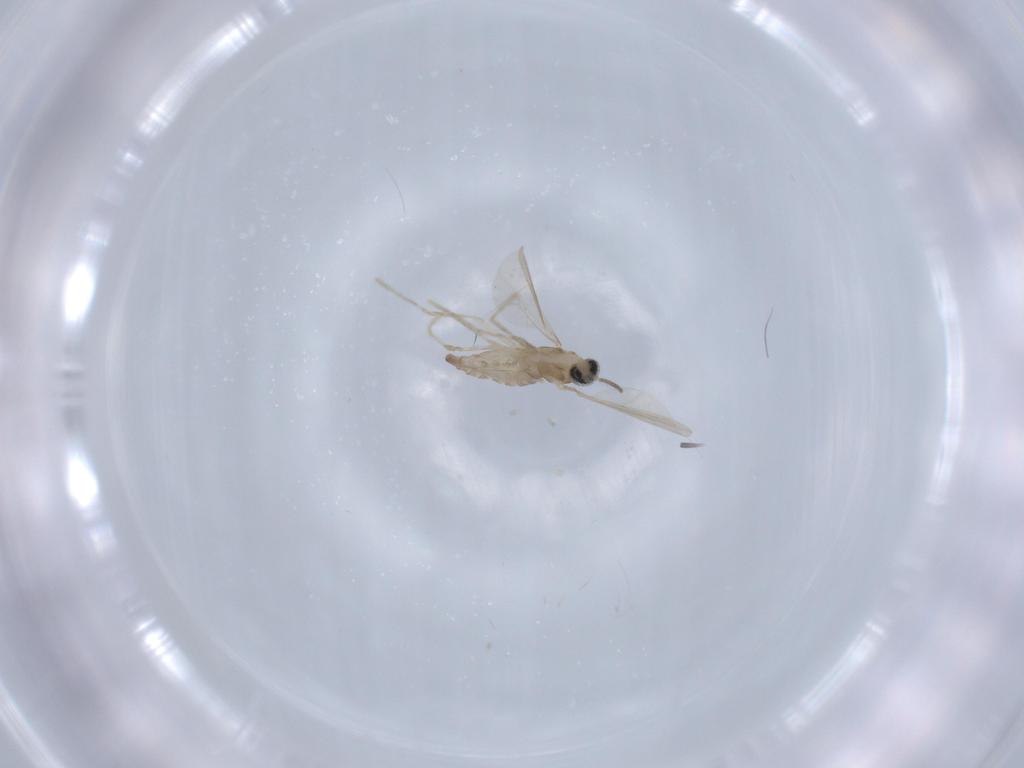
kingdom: Animalia
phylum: Arthropoda
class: Insecta
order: Diptera
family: Cecidomyiidae
